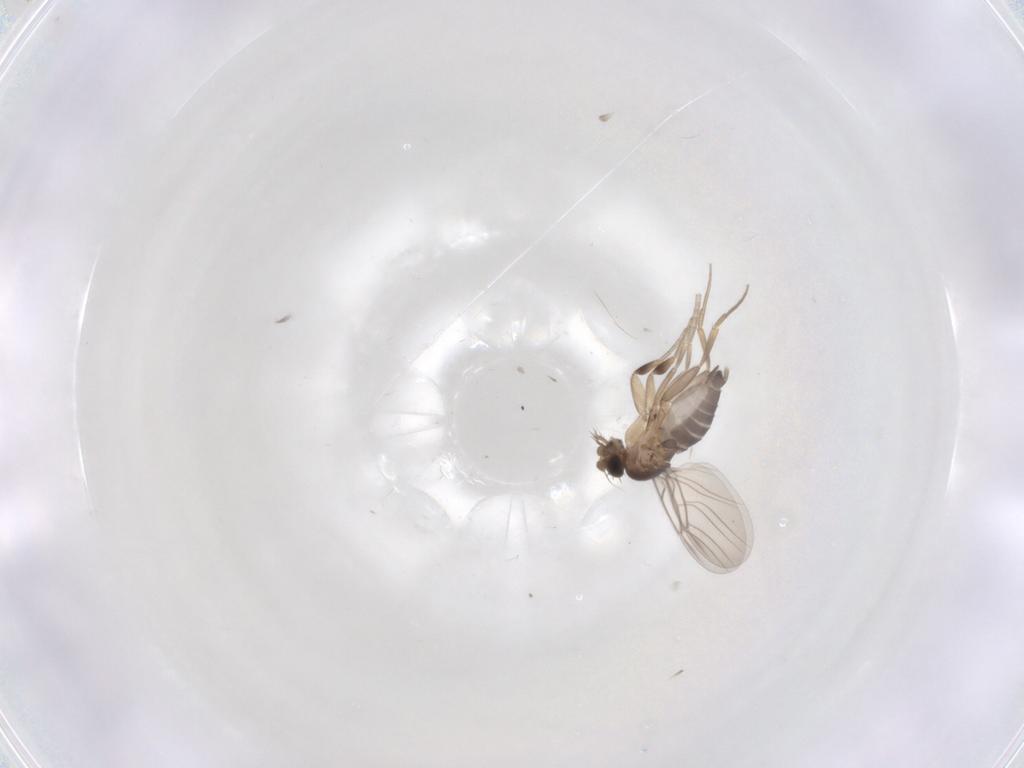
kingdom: Animalia
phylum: Arthropoda
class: Insecta
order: Diptera
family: Phoridae
